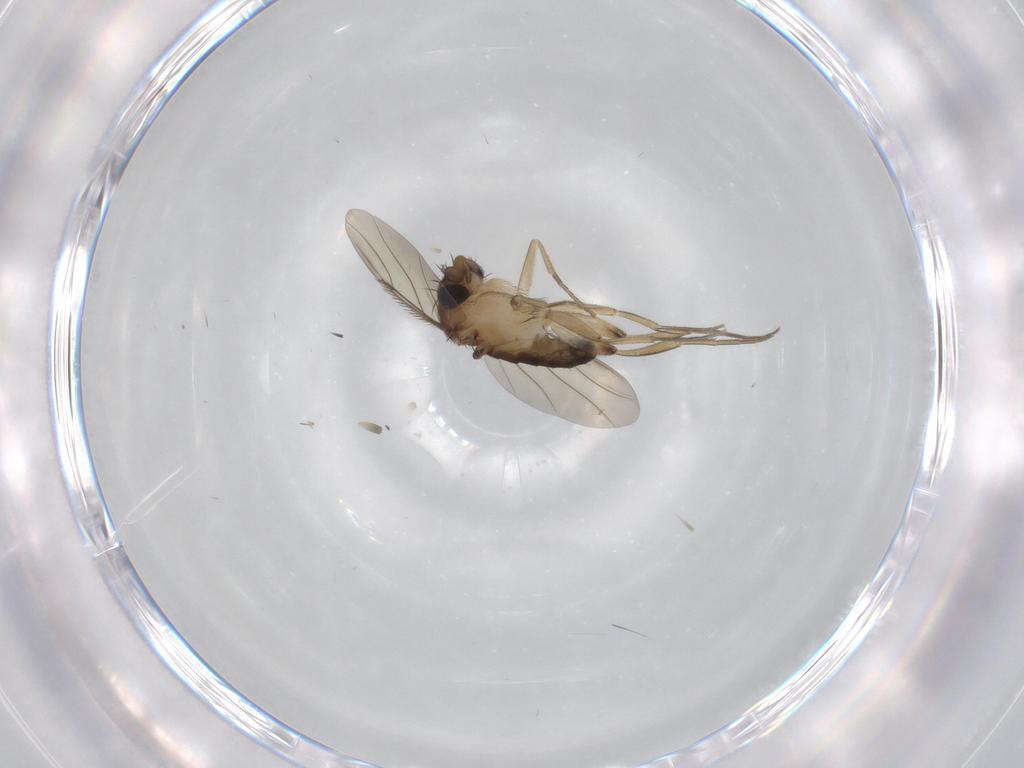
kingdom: Animalia
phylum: Arthropoda
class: Insecta
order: Diptera
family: Phoridae
